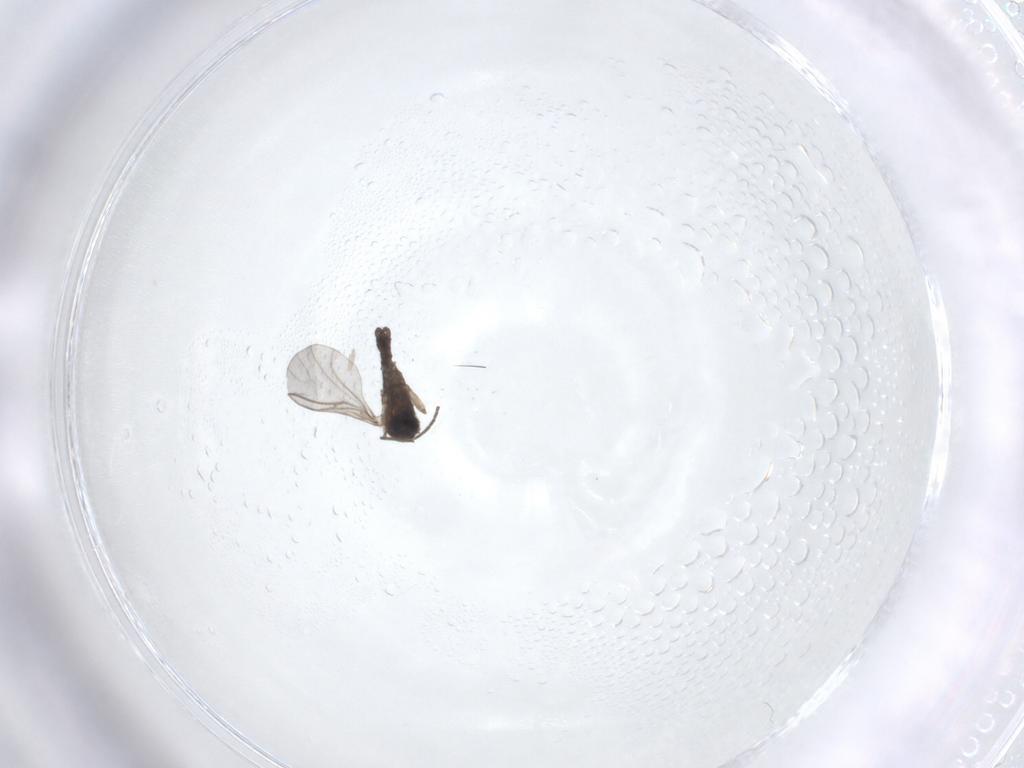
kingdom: Animalia
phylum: Arthropoda
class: Insecta
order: Diptera
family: Sciaridae
